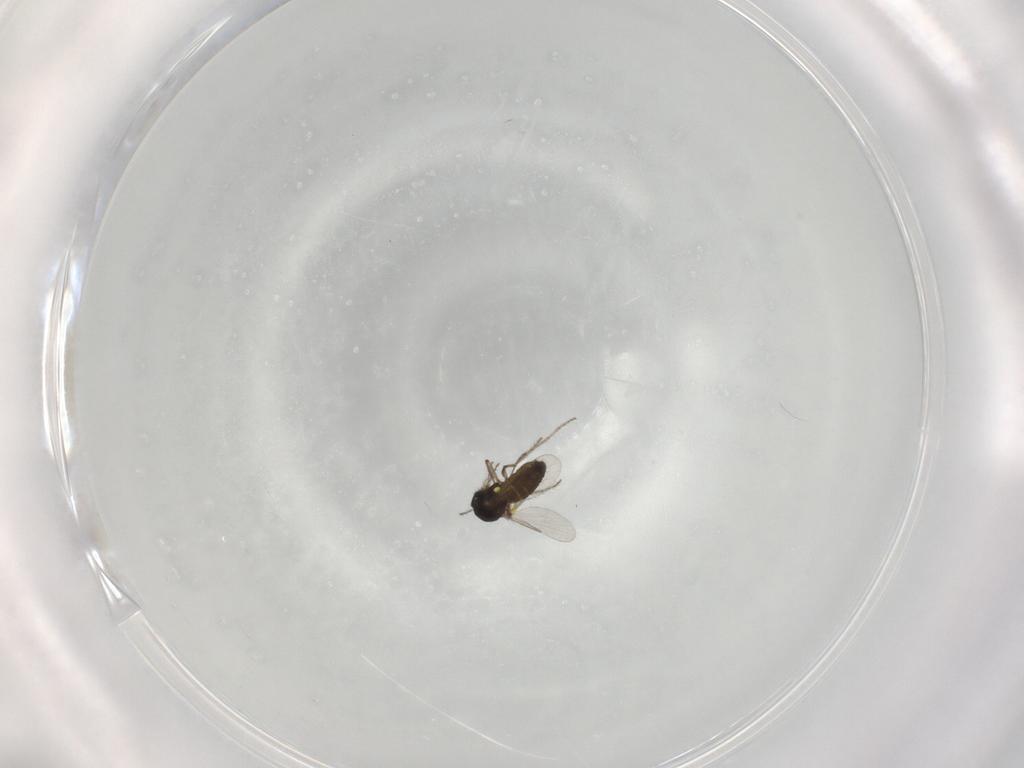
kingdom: Animalia
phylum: Arthropoda
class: Insecta
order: Diptera
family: Ceratopogonidae
